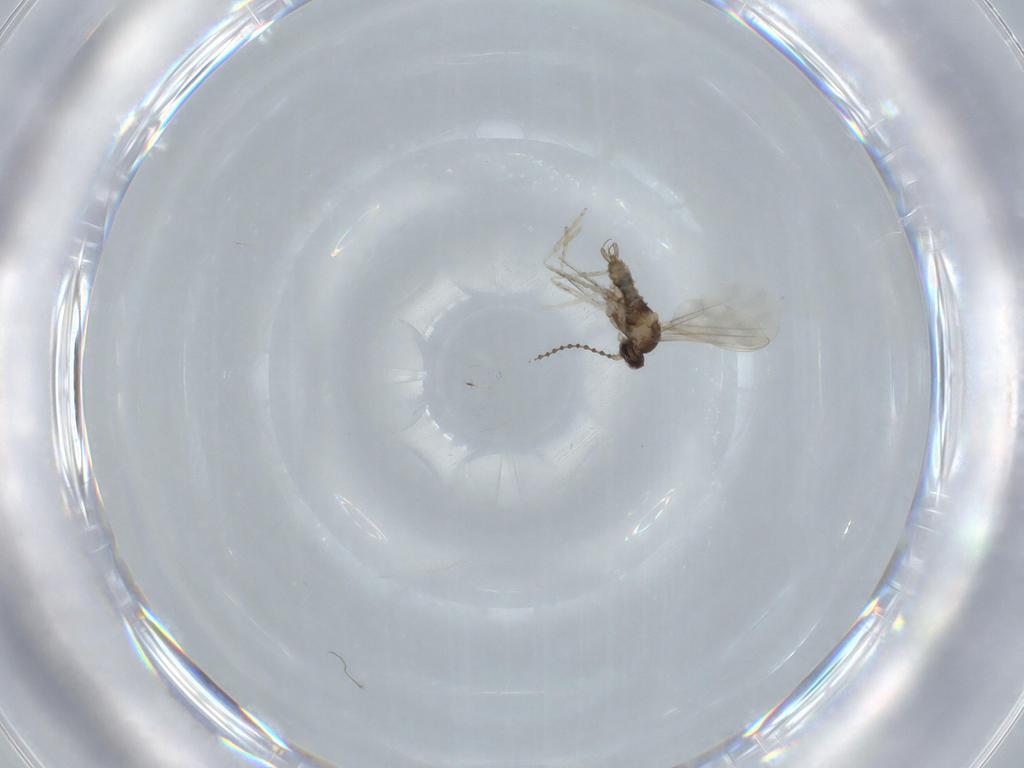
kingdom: Animalia
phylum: Arthropoda
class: Insecta
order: Diptera
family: Cecidomyiidae
